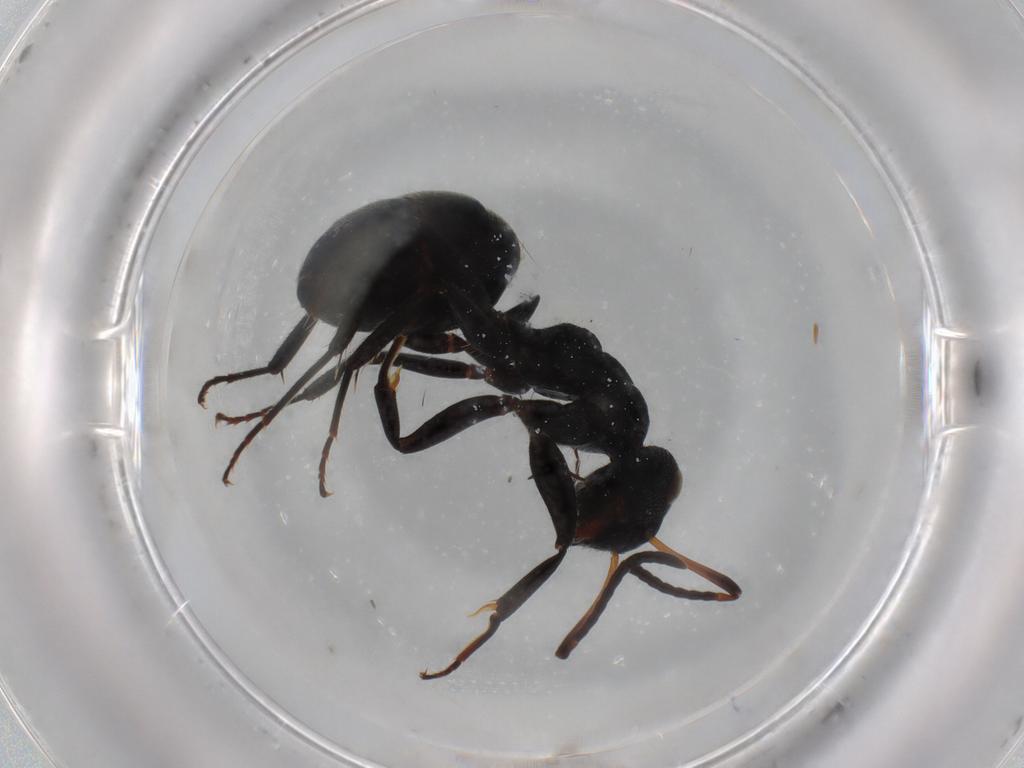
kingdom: Animalia
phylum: Arthropoda
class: Insecta
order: Hymenoptera
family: Formicidae
